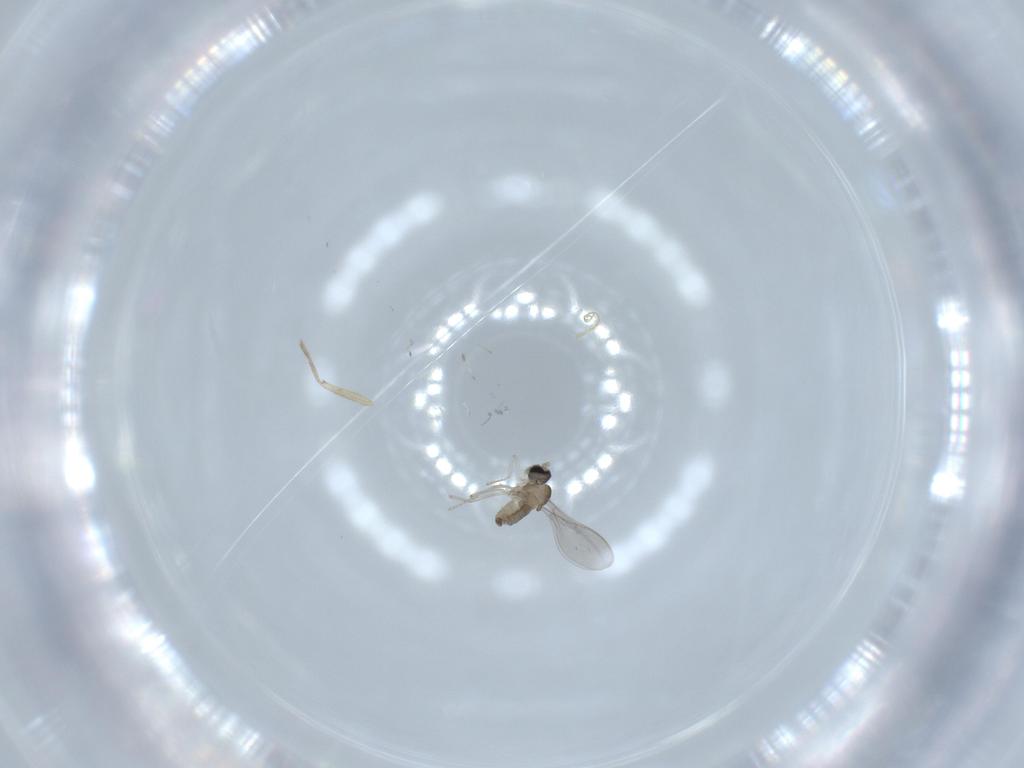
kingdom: Animalia
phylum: Arthropoda
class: Insecta
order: Diptera
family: Cecidomyiidae
